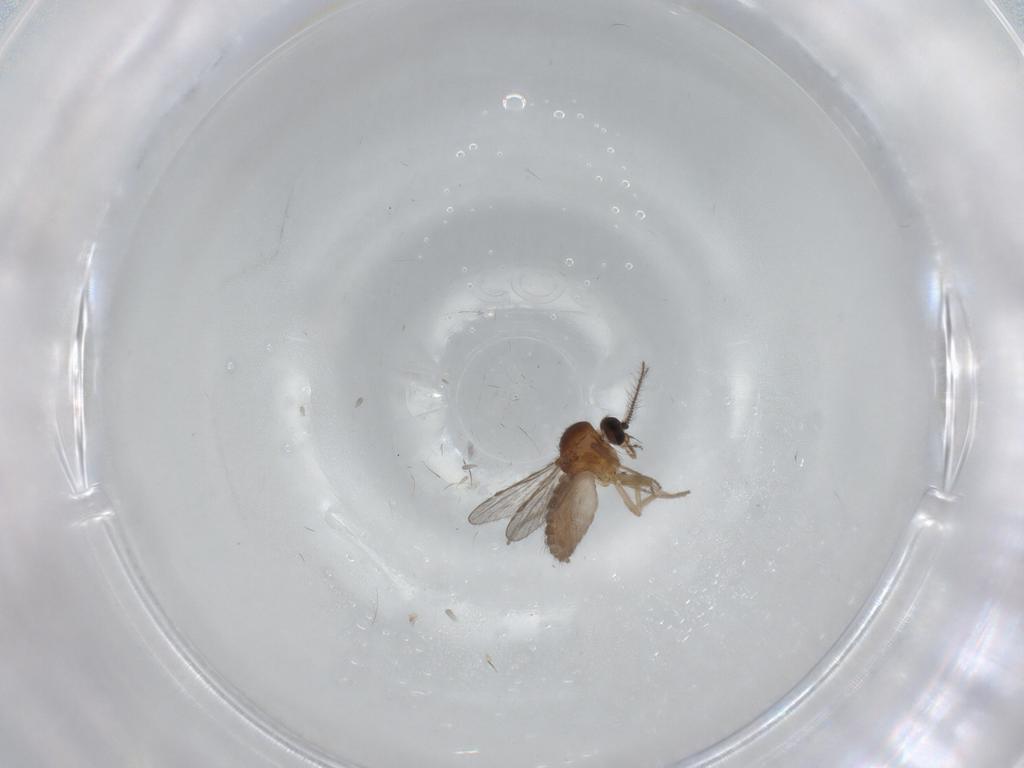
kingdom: Animalia
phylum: Arthropoda
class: Insecta
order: Diptera
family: Ceratopogonidae
